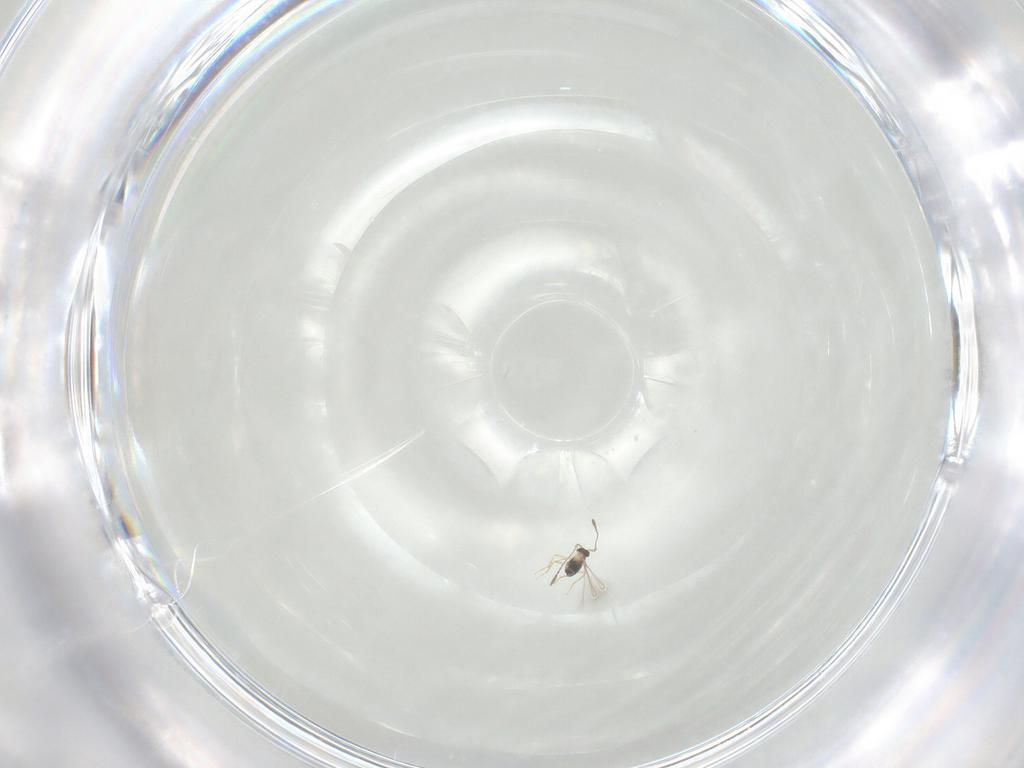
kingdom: Animalia
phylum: Arthropoda
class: Insecta
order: Hymenoptera
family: Mymaridae
